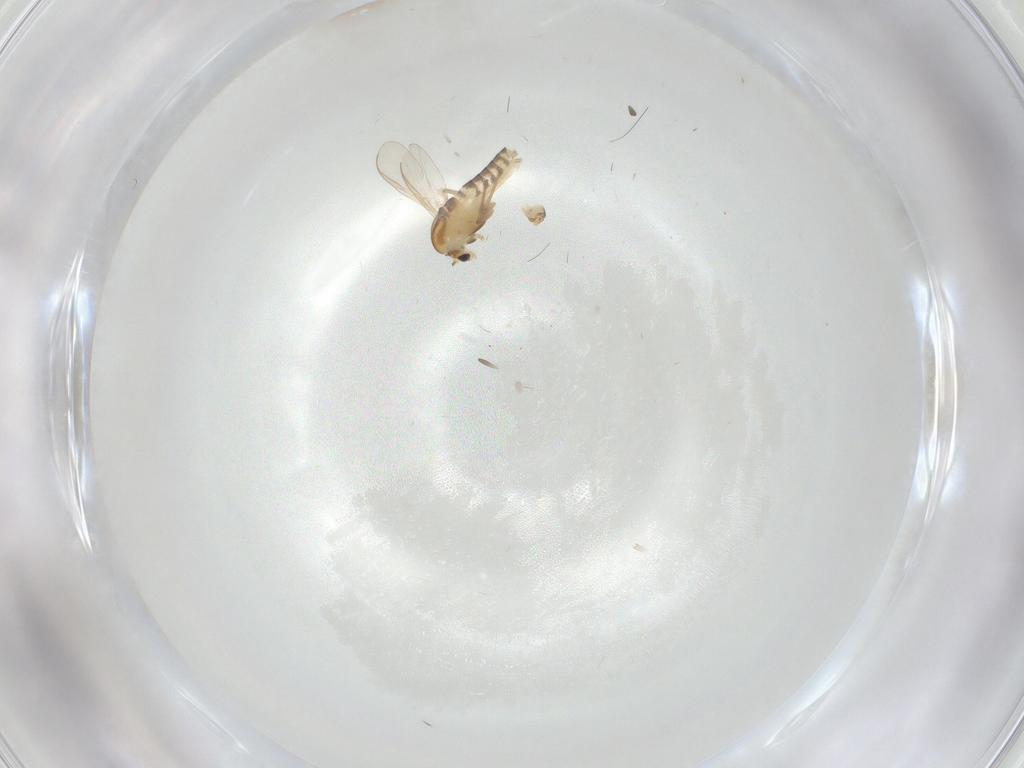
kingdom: Animalia
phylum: Arthropoda
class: Insecta
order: Diptera
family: Chironomidae
